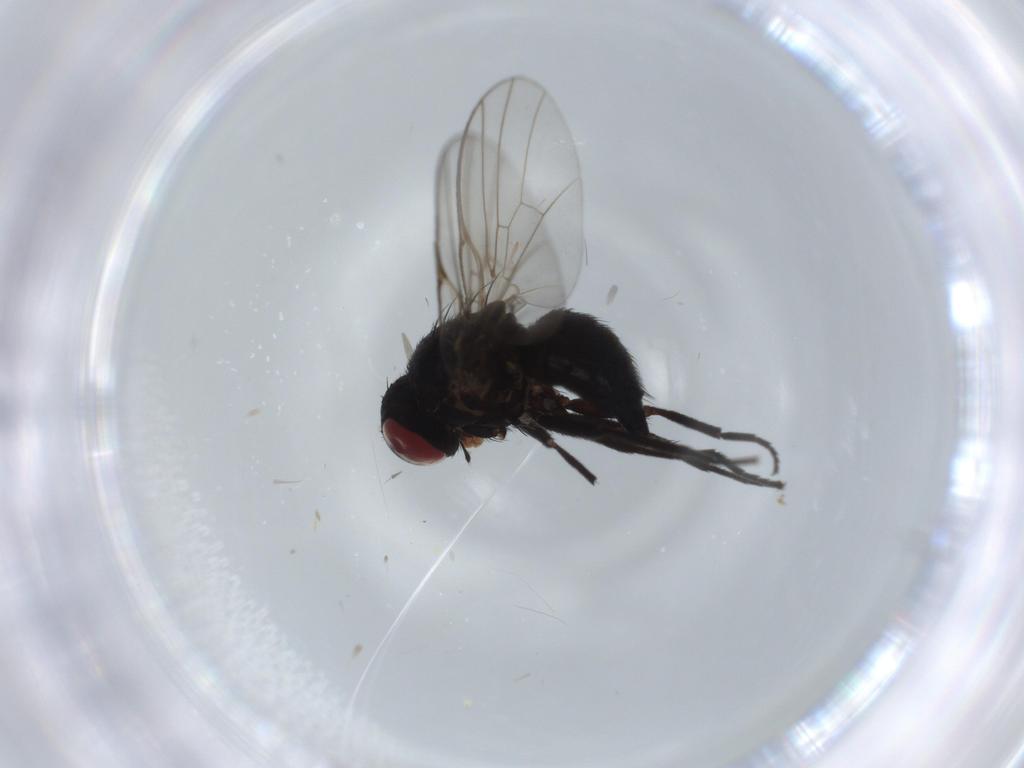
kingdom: Animalia
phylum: Arthropoda
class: Insecta
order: Diptera
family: Ceratopogonidae
